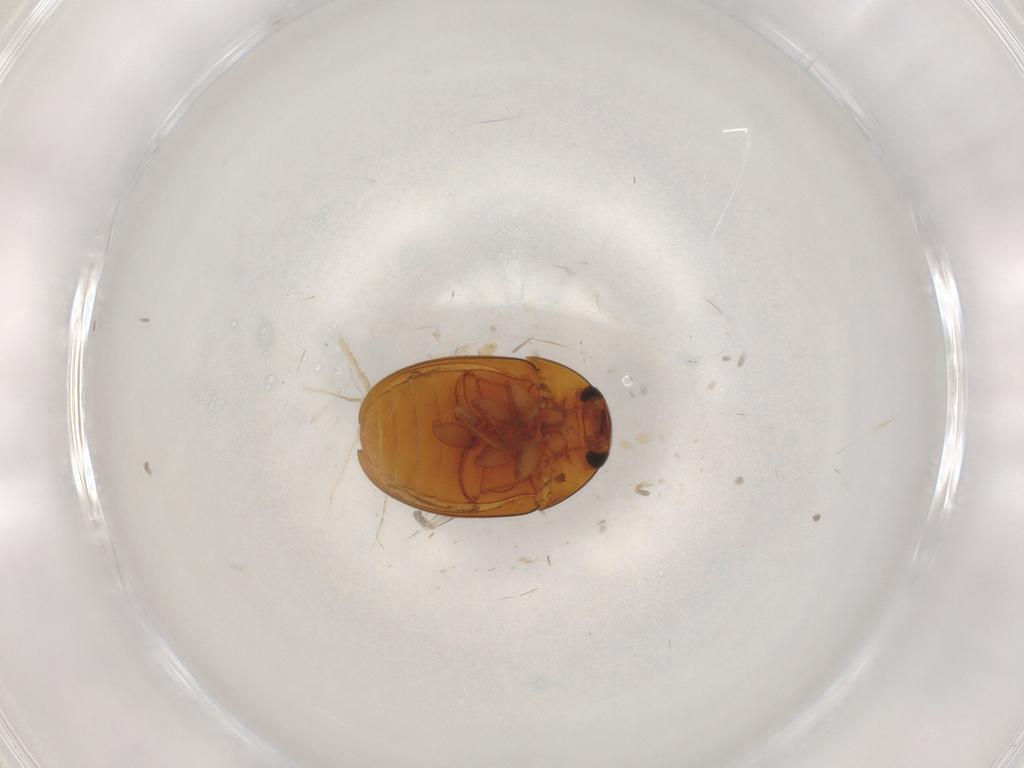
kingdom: Animalia
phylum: Arthropoda
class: Insecta
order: Coleoptera
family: Phalacridae
